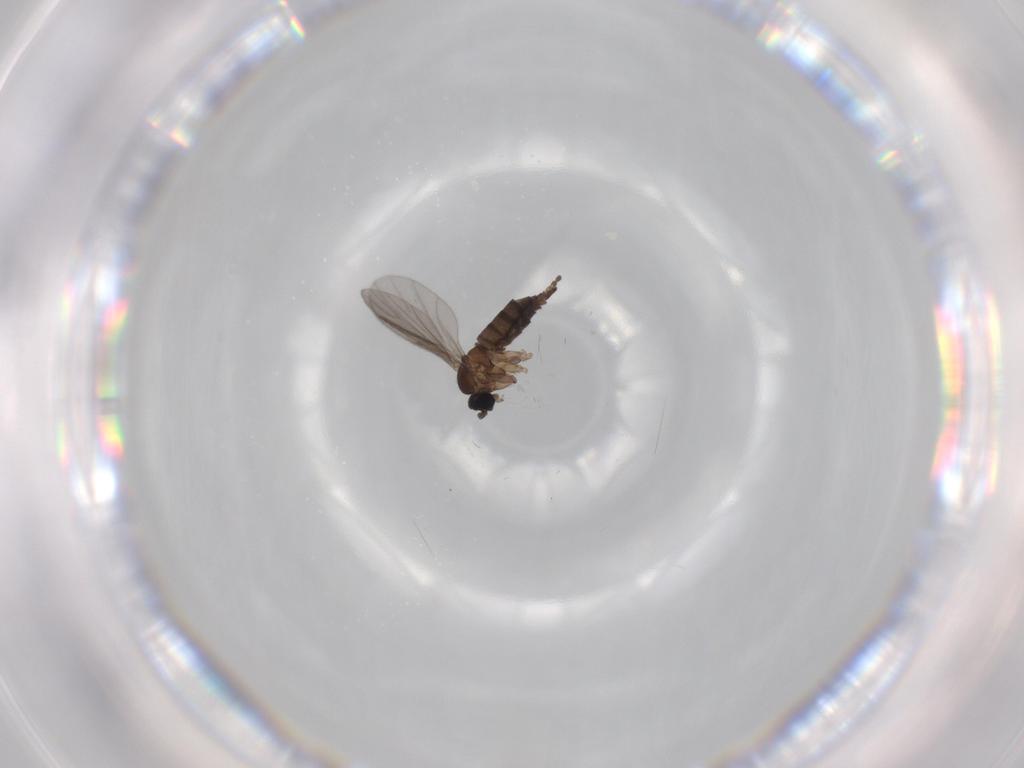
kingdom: Animalia
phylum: Arthropoda
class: Insecta
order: Diptera
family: Sciaridae
